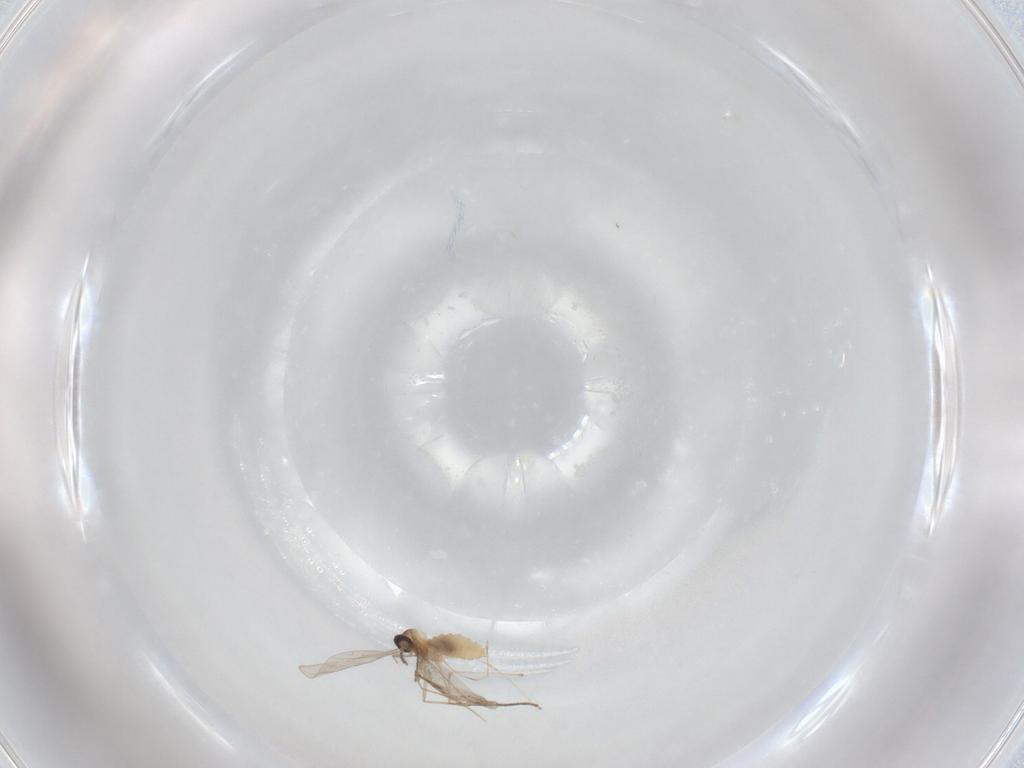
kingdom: Animalia
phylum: Arthropoda
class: Insecta
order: Diptera
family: Cecidomyiidae
